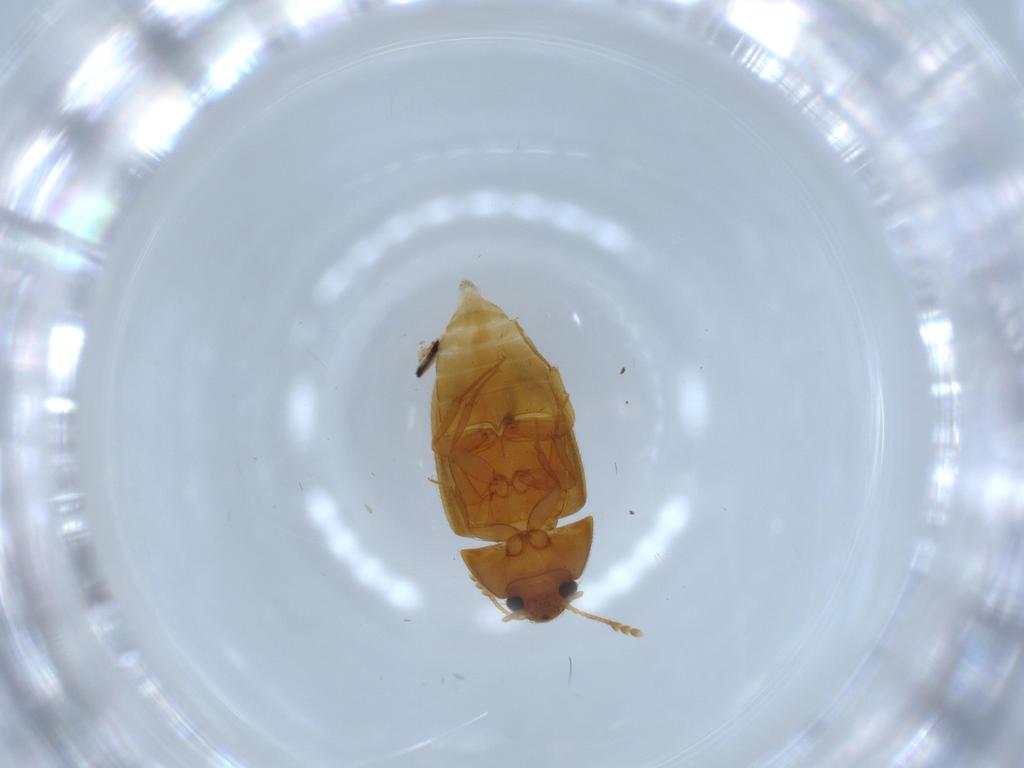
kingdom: Animalia
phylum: Arthropoda
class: Insecta
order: Coleoptera
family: Mycetophagidae
